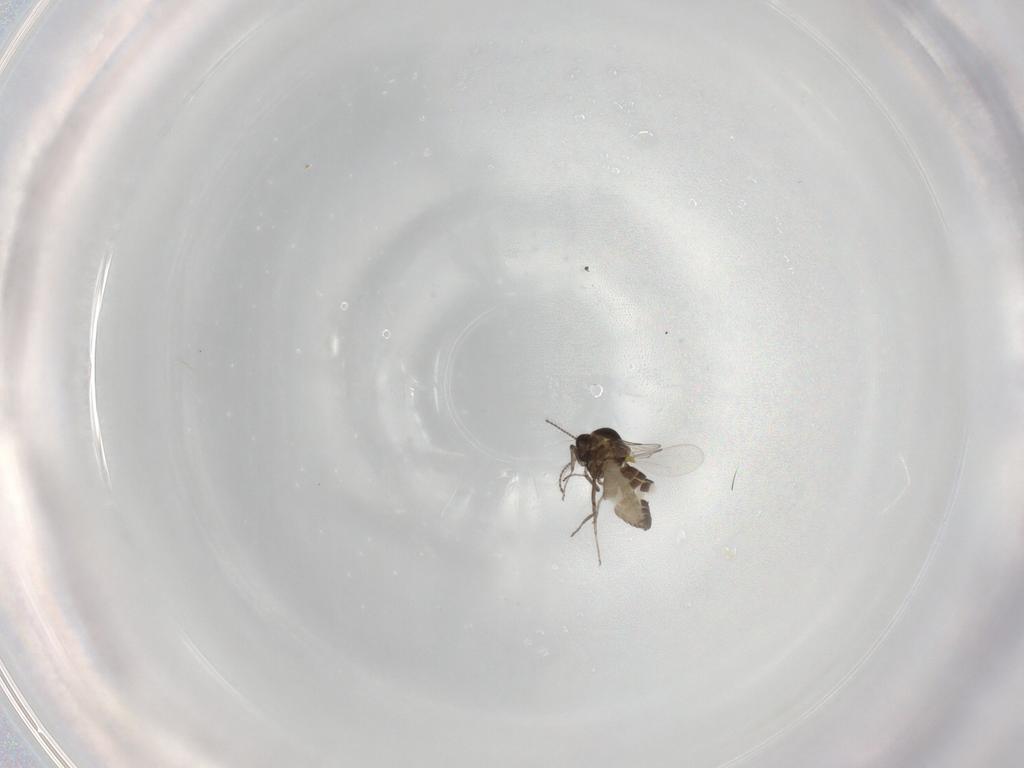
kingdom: Animalia
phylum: Arthropoda
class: Insecta
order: Diptera
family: Ceratopogonidae
